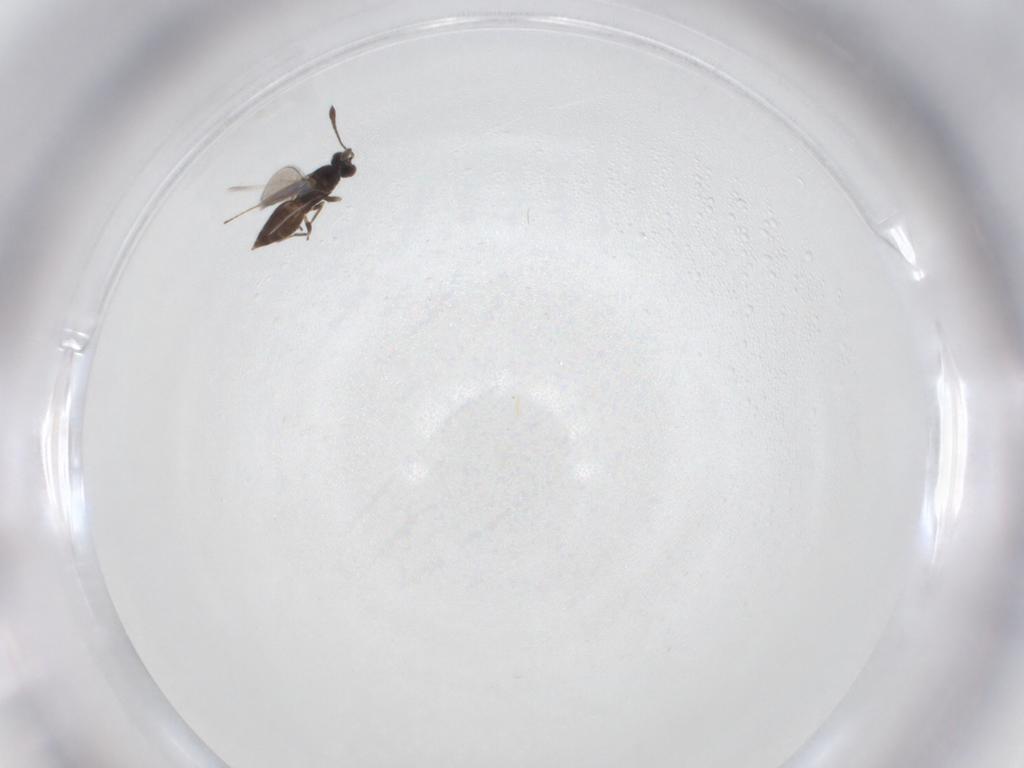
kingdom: Animalia
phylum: Arthropoda
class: Insecta
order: Hymenoptera
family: Mymaridae
